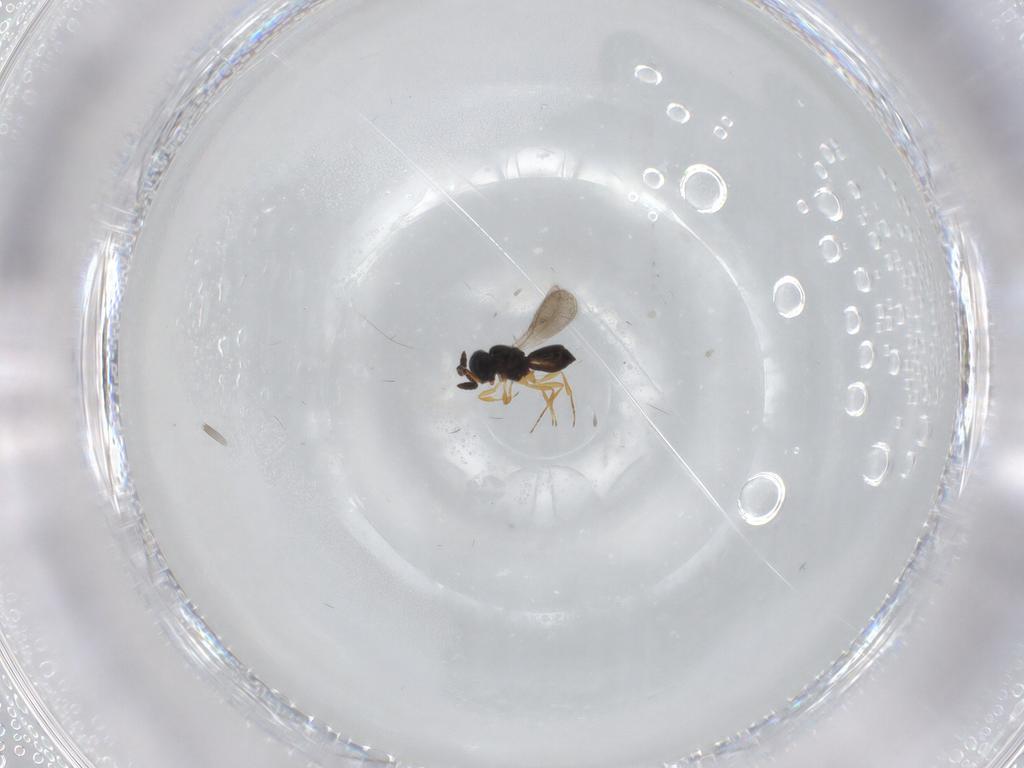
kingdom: Animalia
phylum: Arthropoda
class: Insecta
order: Hymenoptera
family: Scelionidae
